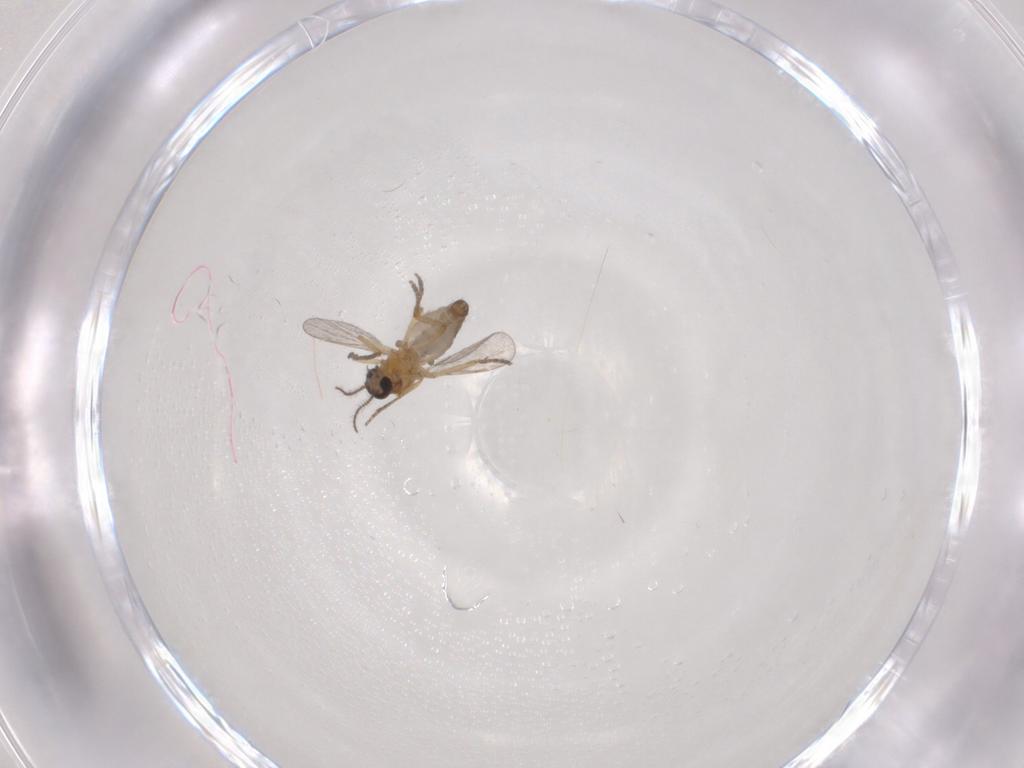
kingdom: Animalia
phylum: Arthropoda
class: Insecta
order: Diptera
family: Ceratopogonidae
